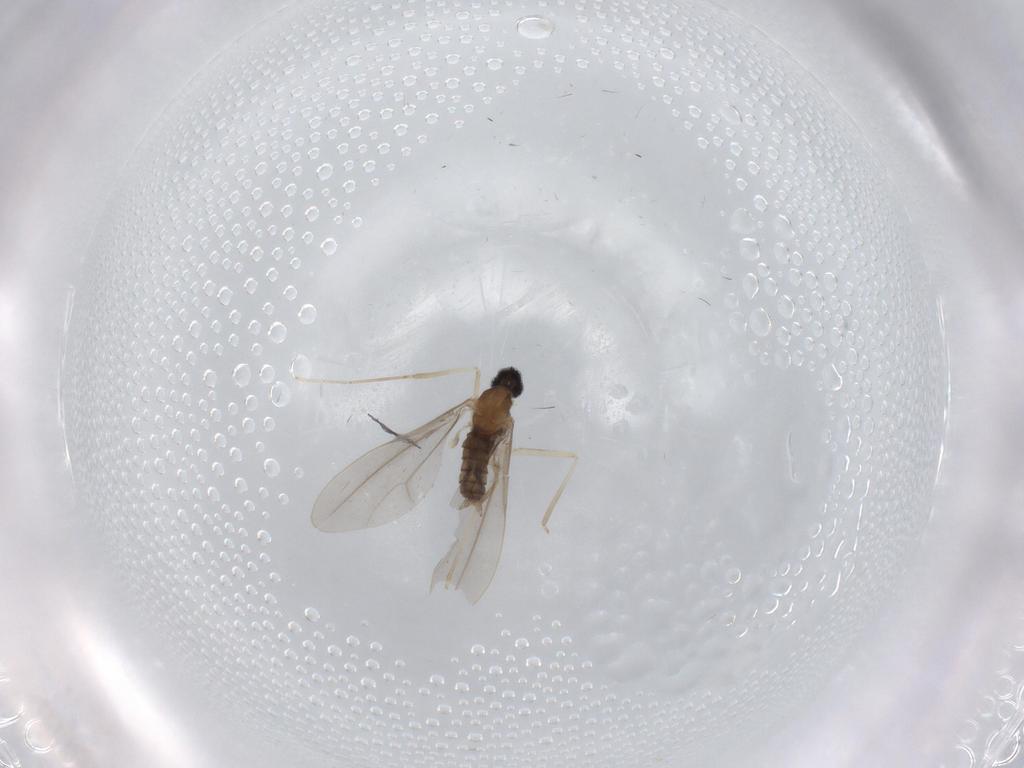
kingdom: Animalia
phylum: Arthropoda
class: Insecta
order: Diptera
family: Cecidomyiidae
